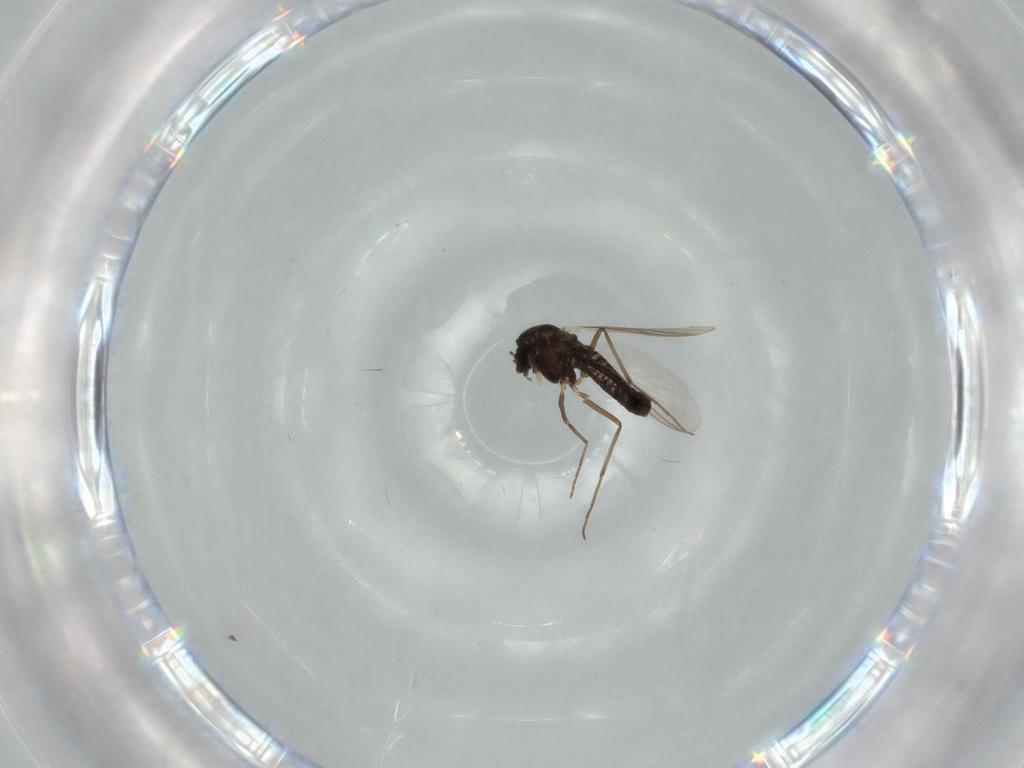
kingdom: Animalia
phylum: Arthropoda
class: Insecta
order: Diptera
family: Chironomidae
